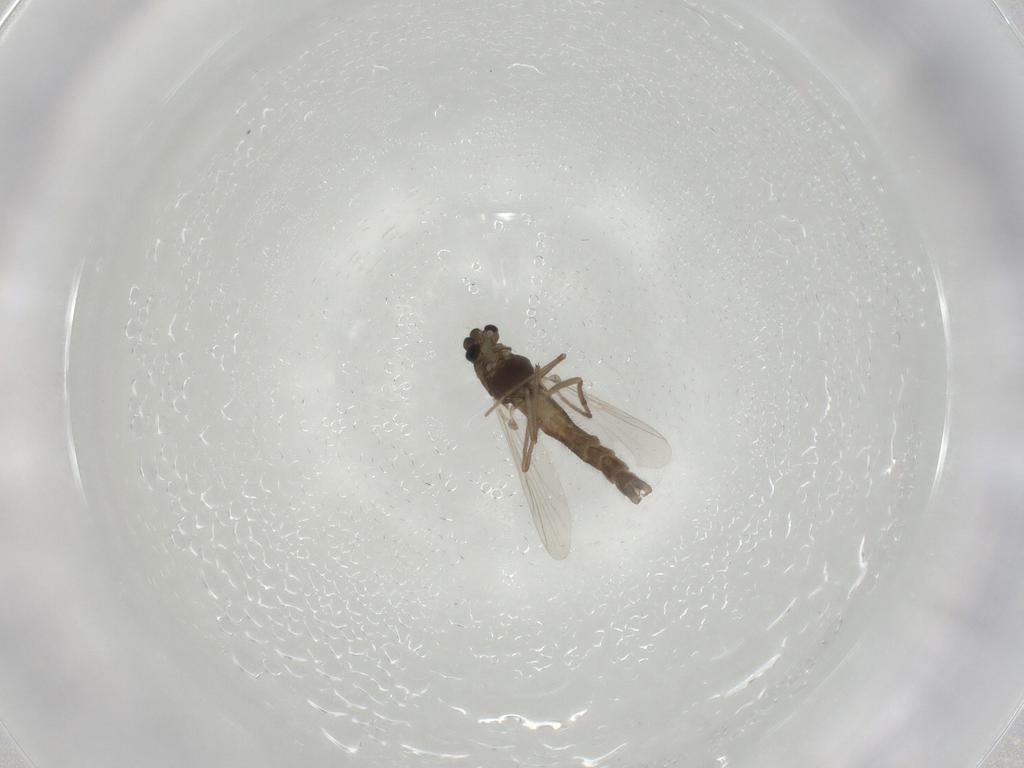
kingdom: Animalia
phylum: Arthropoda
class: Insecta
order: Diptera
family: Chironomidae
